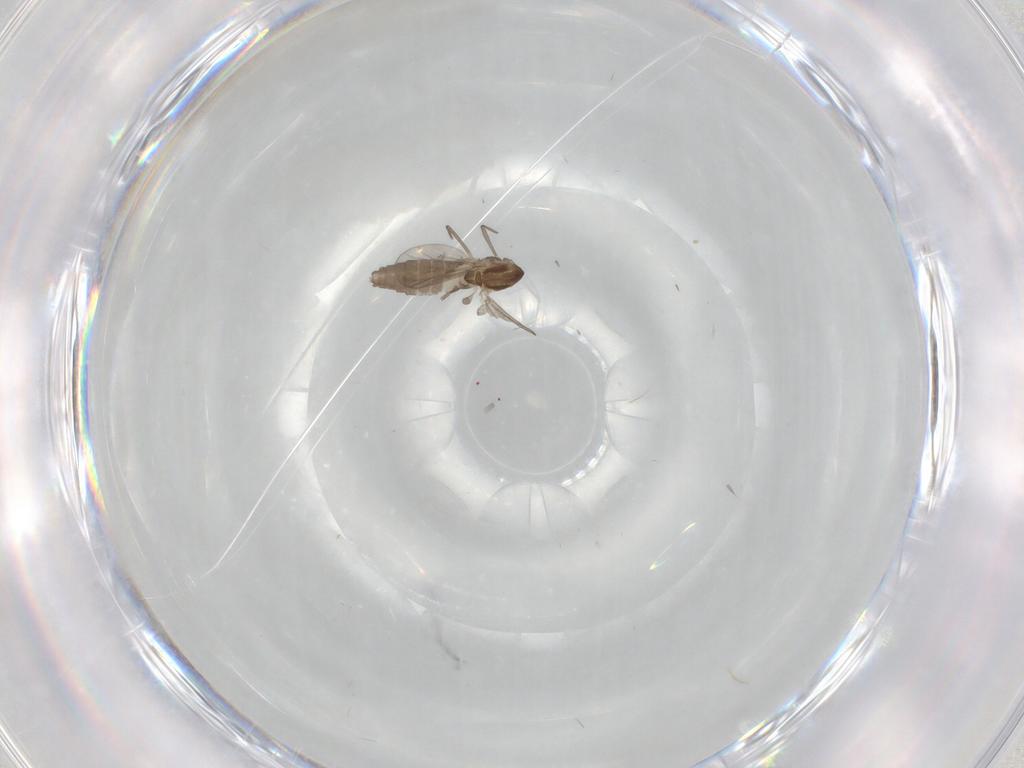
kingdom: Animalia
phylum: Arthropoda
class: Insecta
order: Diptera
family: Chironomidae
